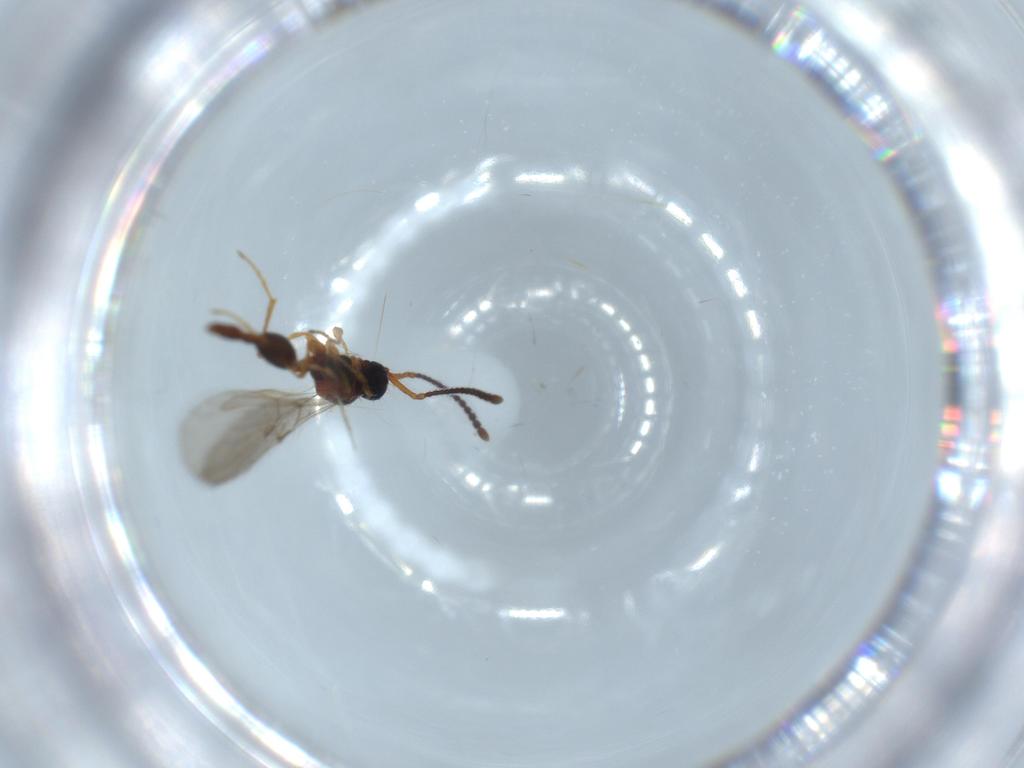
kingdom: Animalia
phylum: Arthropoda
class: Insecta
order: Hymenoptera
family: Diapriidae
